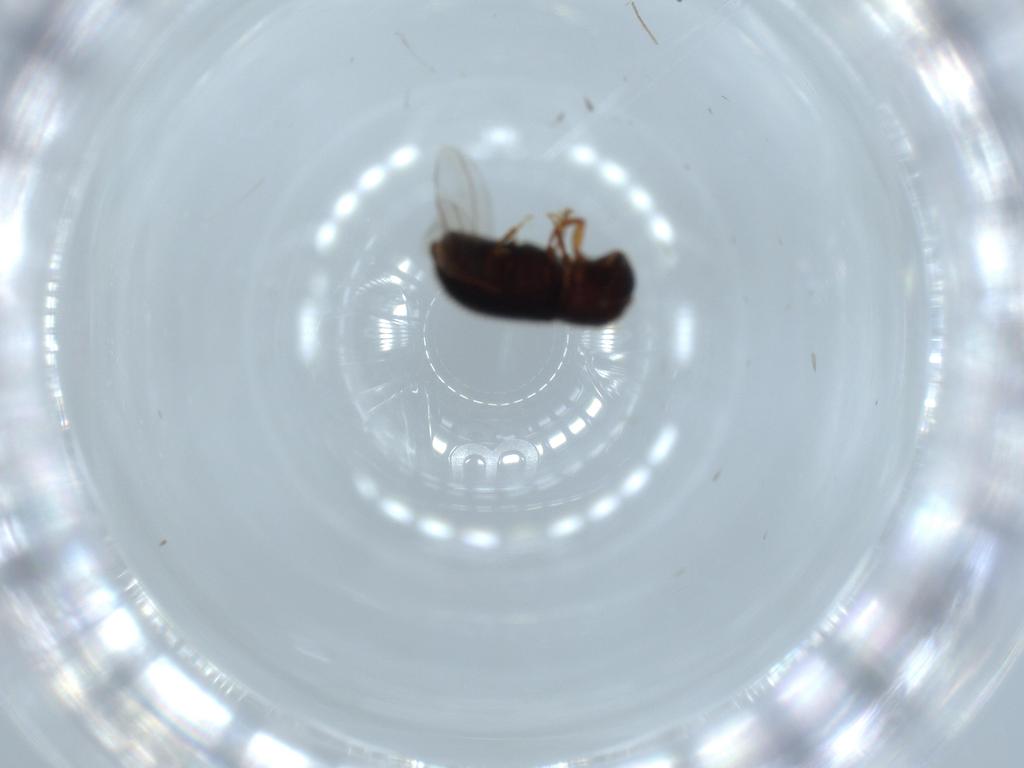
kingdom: Animalia
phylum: Arthropoda
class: Insecta
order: Coleoptera
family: Curculionidae
